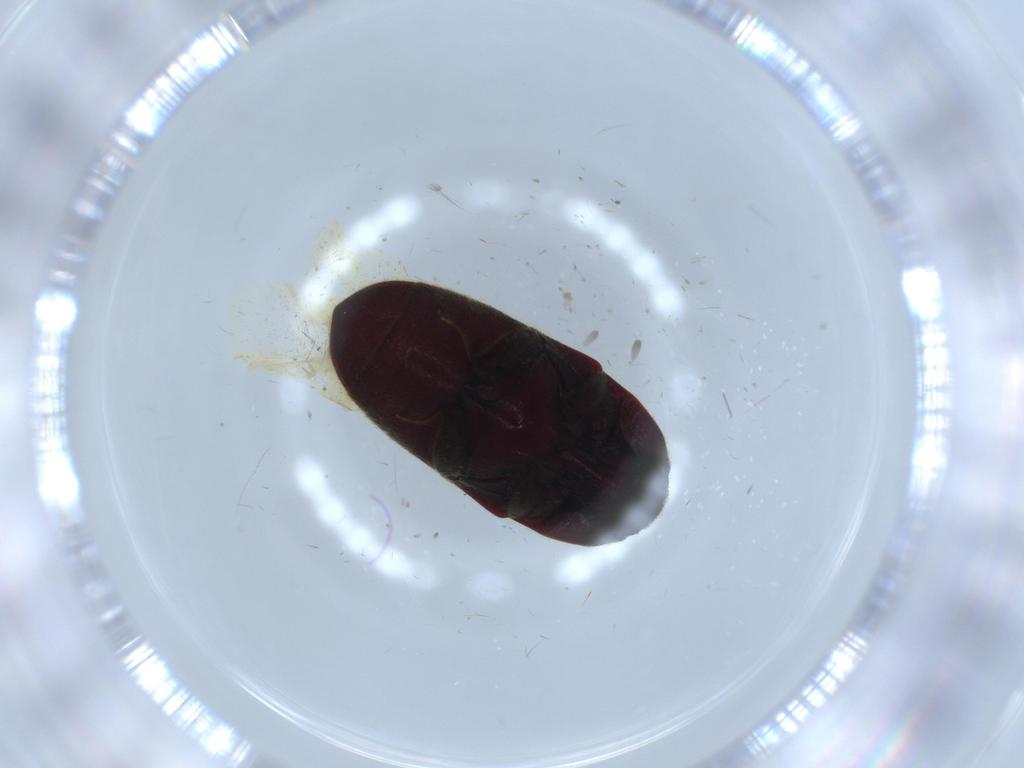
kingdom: Animalia
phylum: Arthropoda
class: Insecta
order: Coleoptera
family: Throscidae
